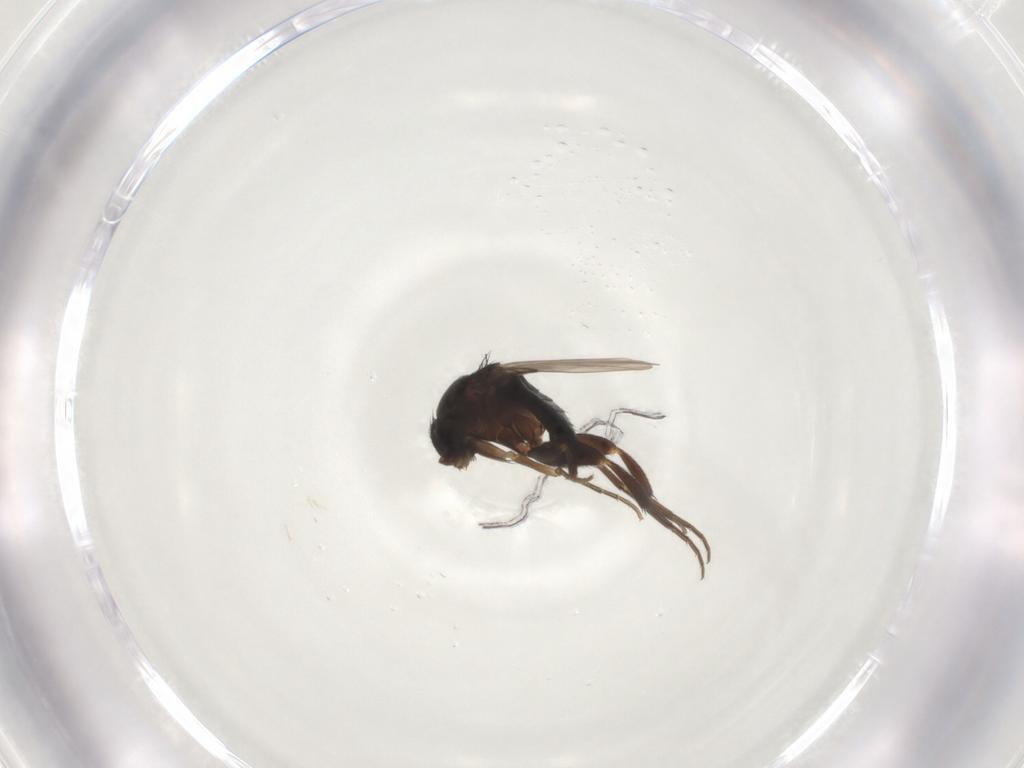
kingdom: Animalia
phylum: Arthropoda
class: Insecta
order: Diptera
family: Phoridae
